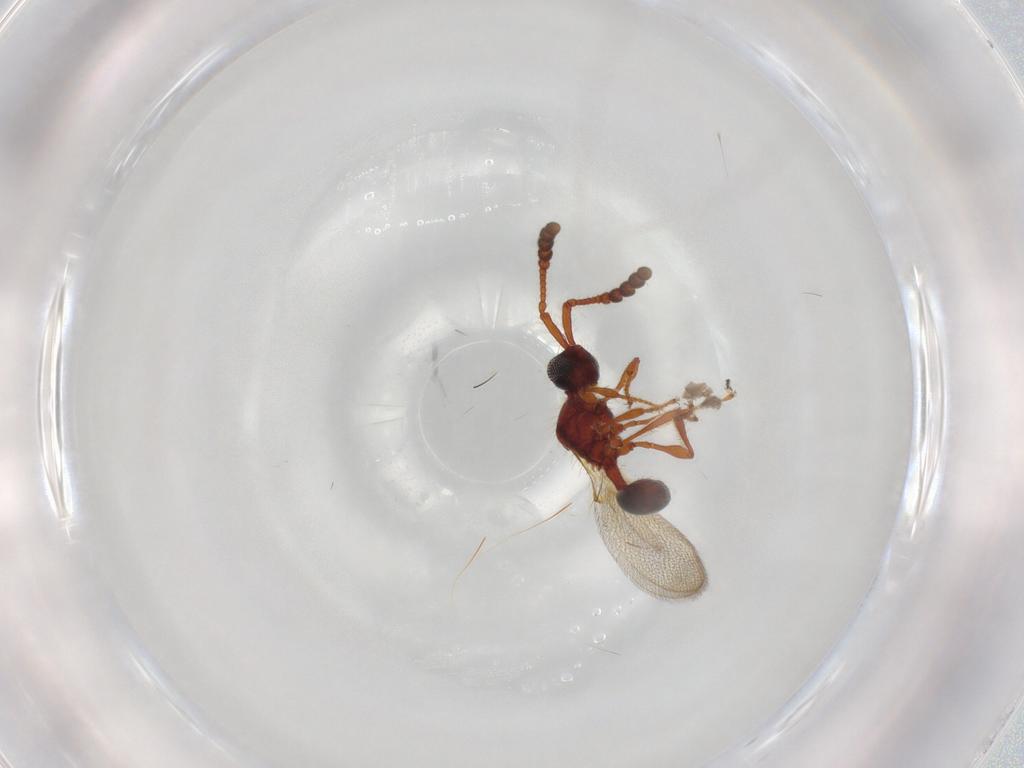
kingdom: Animalia
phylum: Arthropoda
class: Insecta
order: Hymenoptera
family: Diapriidae
